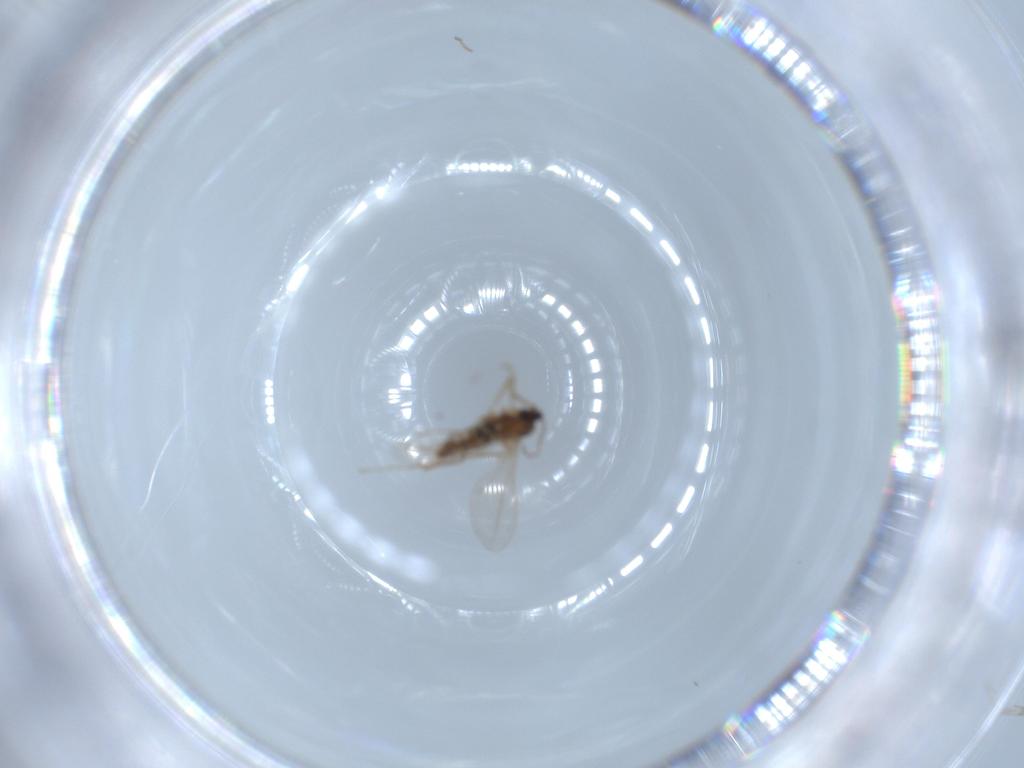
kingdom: Animalia
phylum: Arthropoda
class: Insecta
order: Diptera
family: Cecidomyiidae
